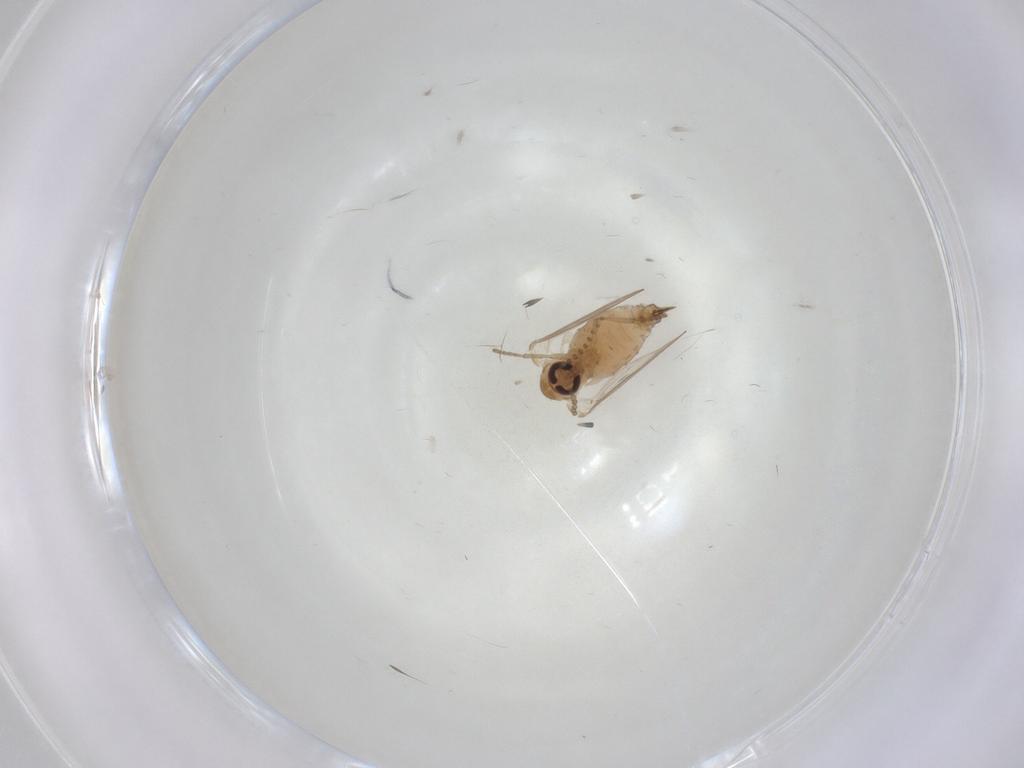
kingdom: Animalia
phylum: Arthropoda
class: Insecta
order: Diptera
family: Psychodidae
